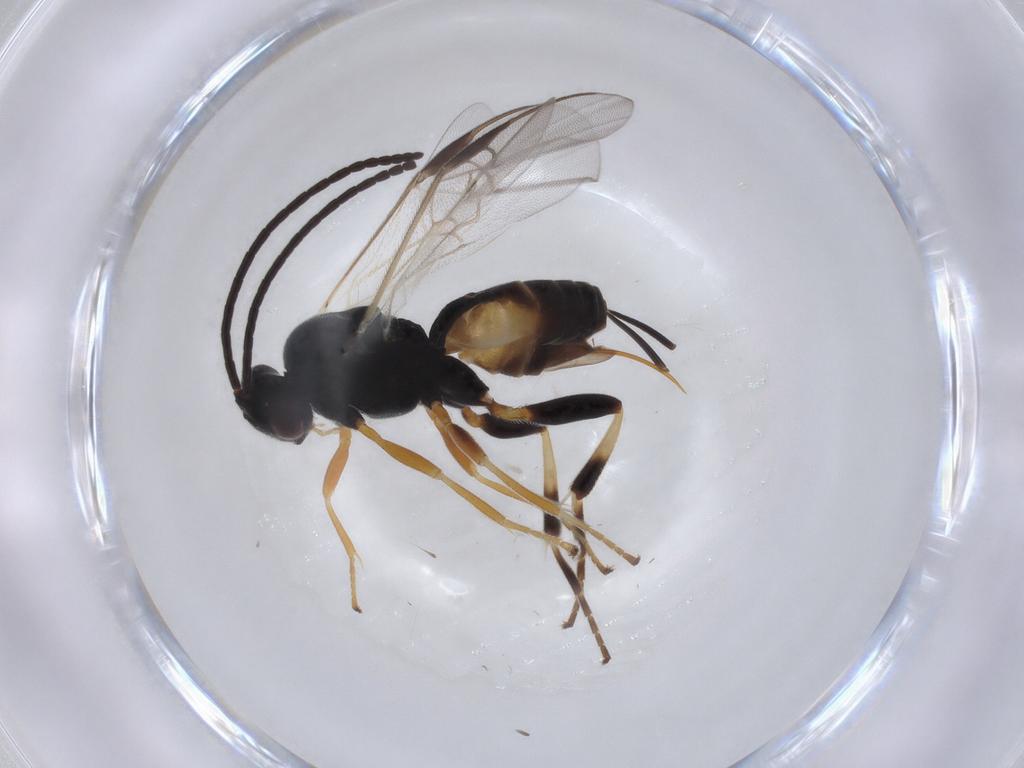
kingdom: Animalia
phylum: Arthropoda
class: Insecta
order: Hymenoptera
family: Braconidae
